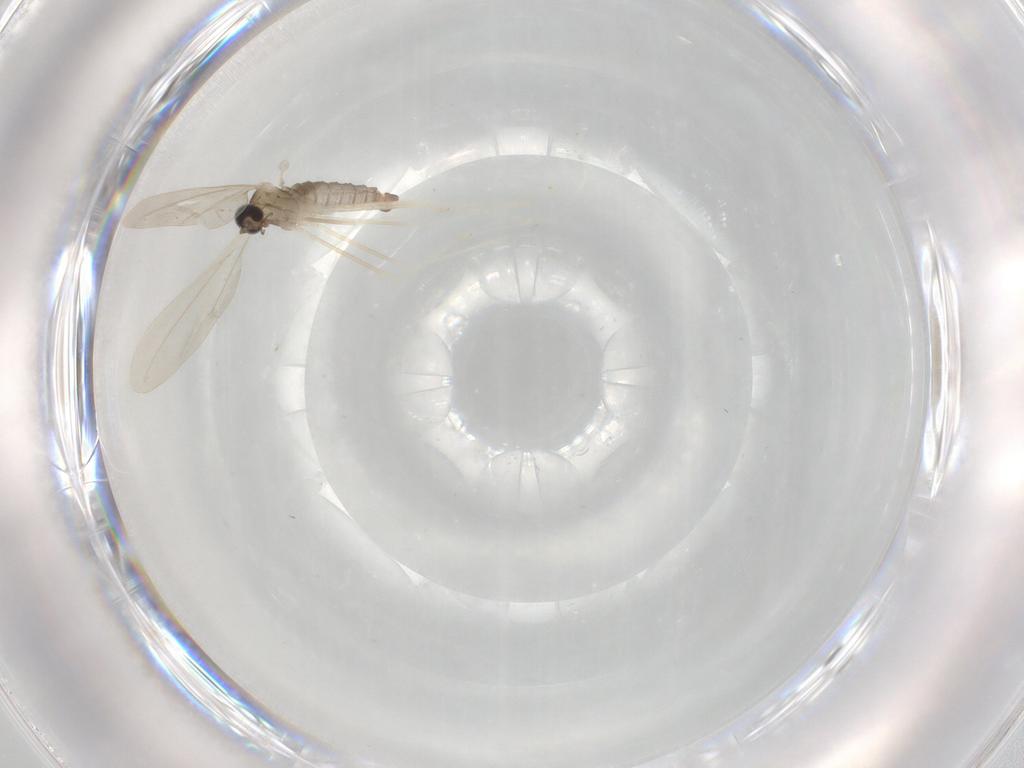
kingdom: Animalia
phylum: Arthropoda
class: Insecta
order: Diptera
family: Cecidomyiidae
